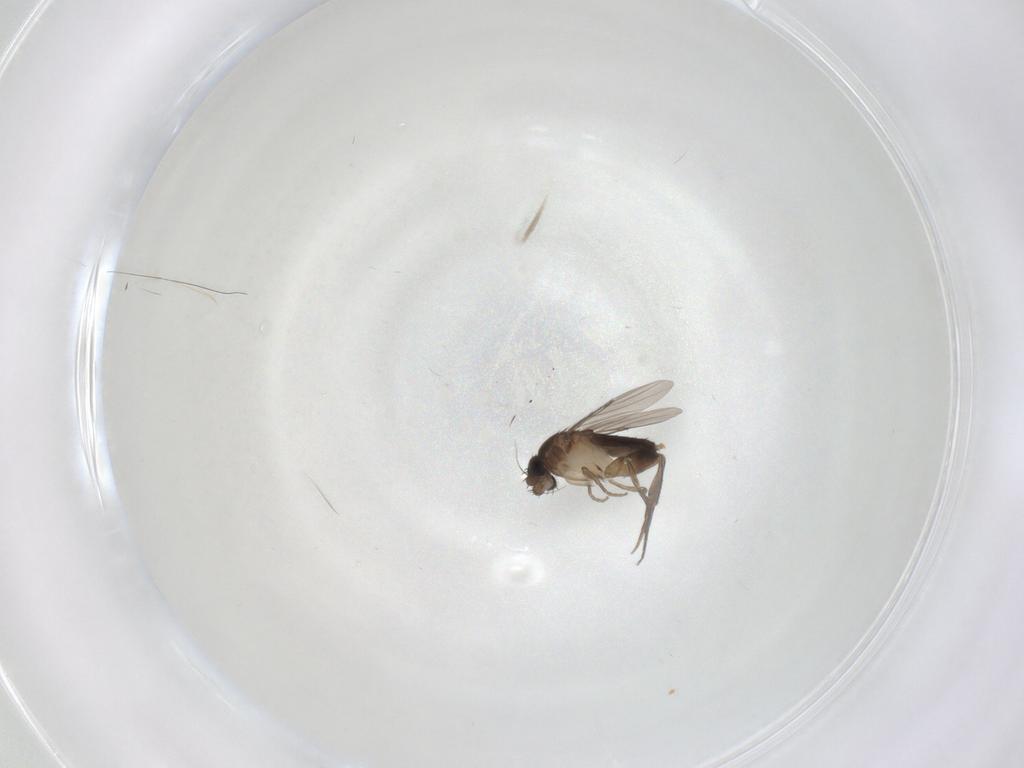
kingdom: Animalia
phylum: Arthropoda
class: Insecta
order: Diptera
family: Phoridae
